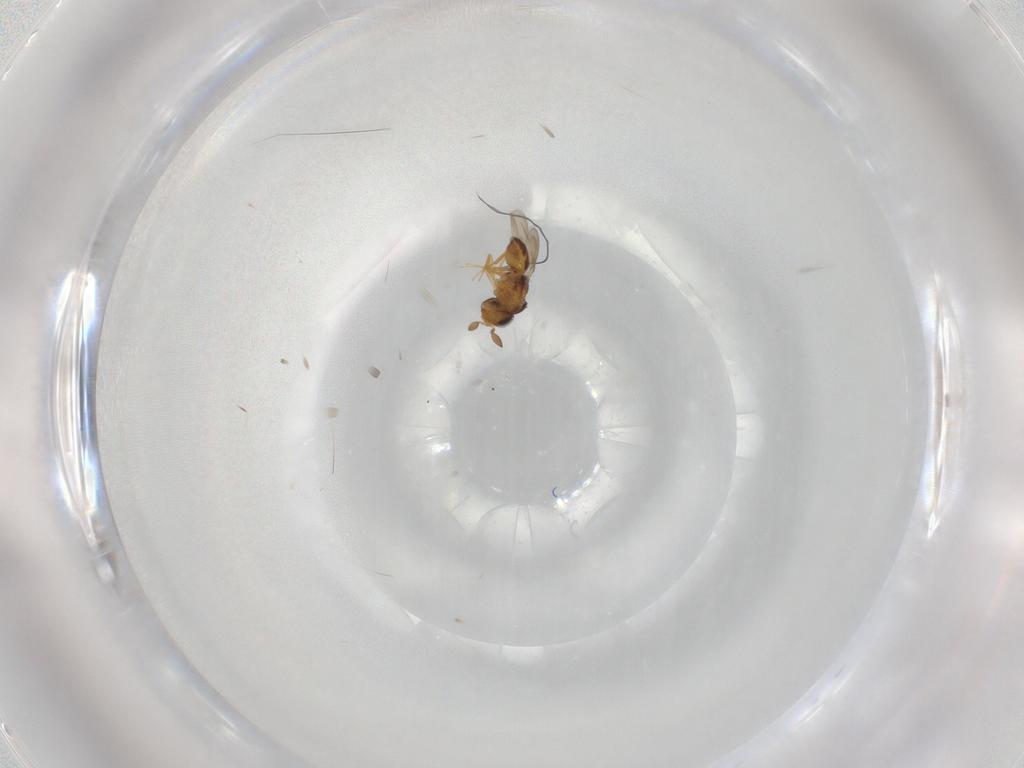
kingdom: Animalia
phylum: Arthropoda
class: Insecta
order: Hymenoptera
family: Scelionidae
